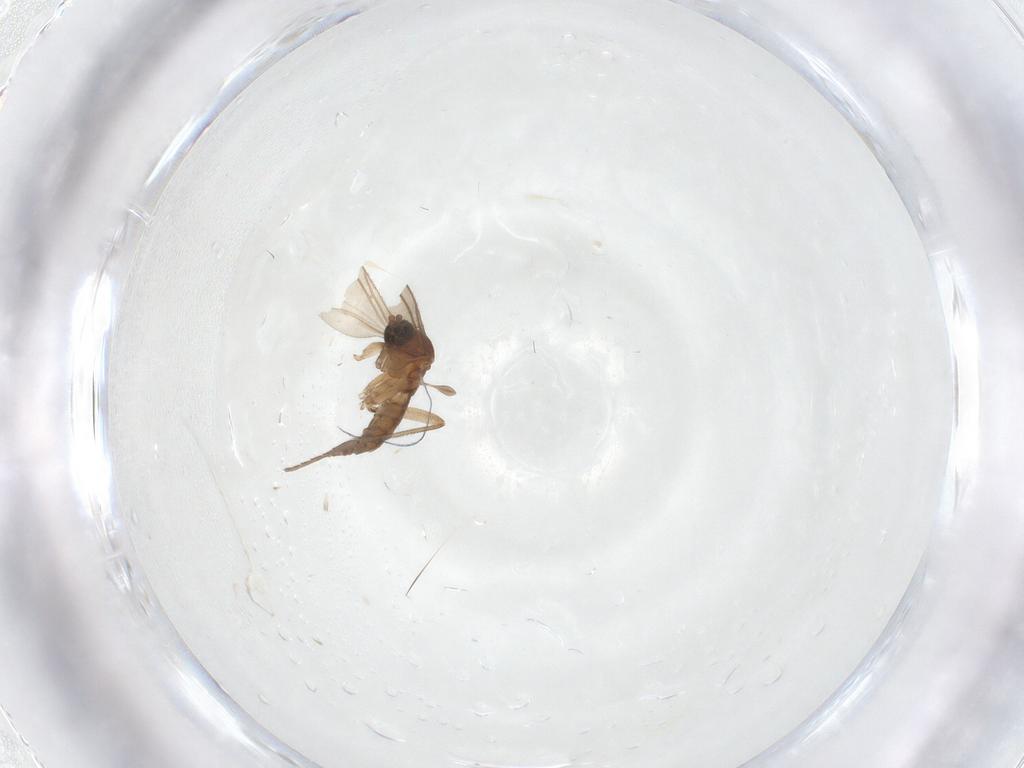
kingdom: Animalia
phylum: Arthropoda
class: Insecta
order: Diptera
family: Sciaridae
